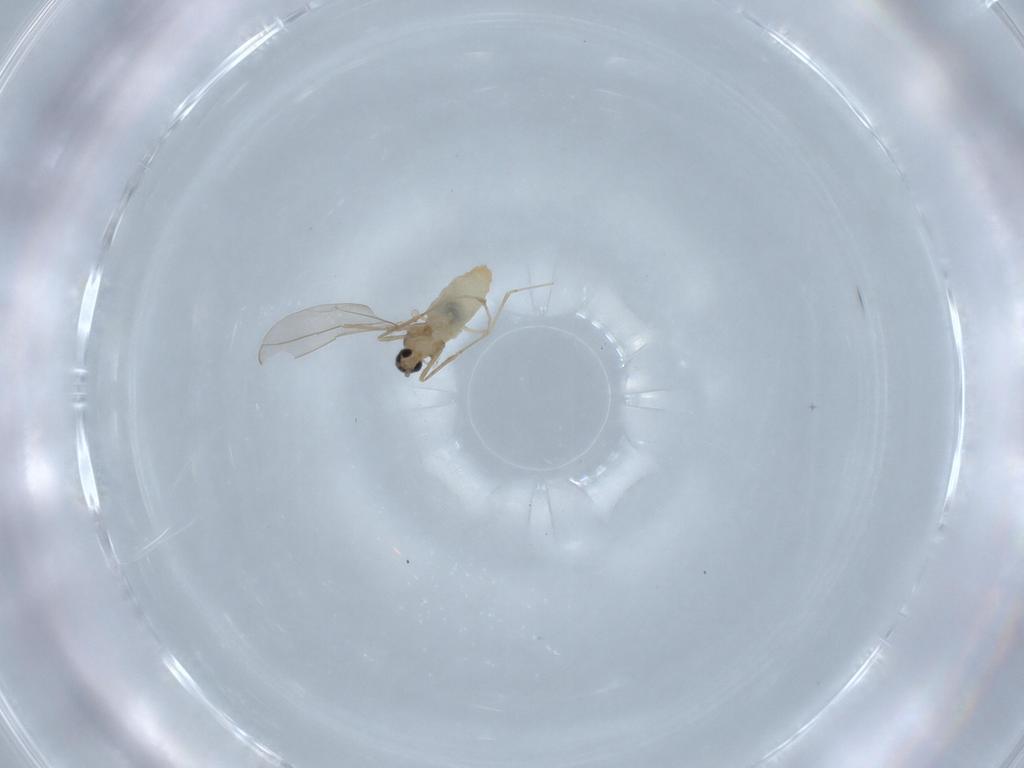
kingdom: Animalia
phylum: Arthropoda
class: Insecta
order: Diptera
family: Cecidomyiidae
